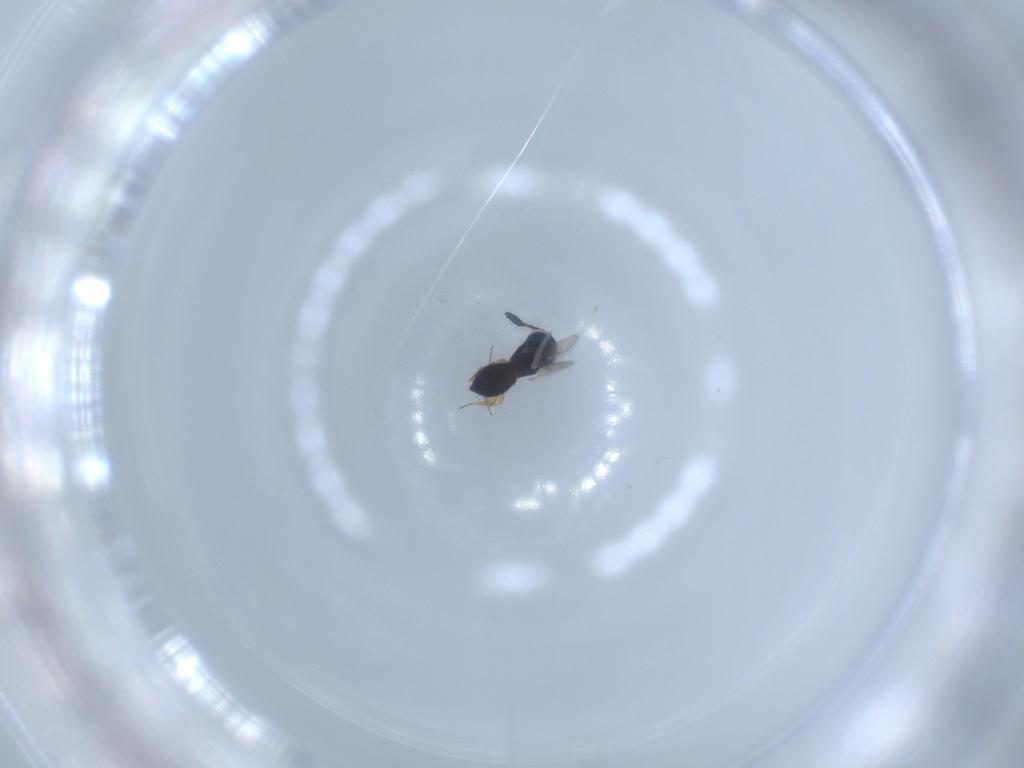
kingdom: Animalia
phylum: Arthropoda
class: Insecta
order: Hymenoptera
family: Scelionidae
